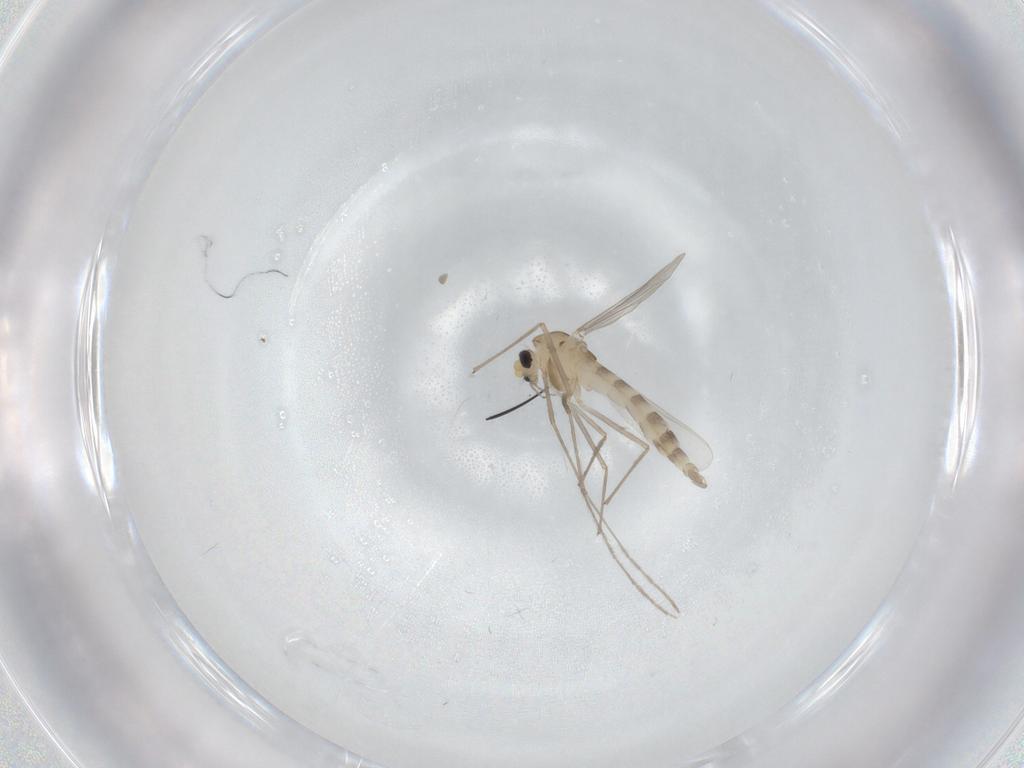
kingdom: Animalia
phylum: Arthropoda
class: Insecta
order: Diptera
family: Chironomidae
